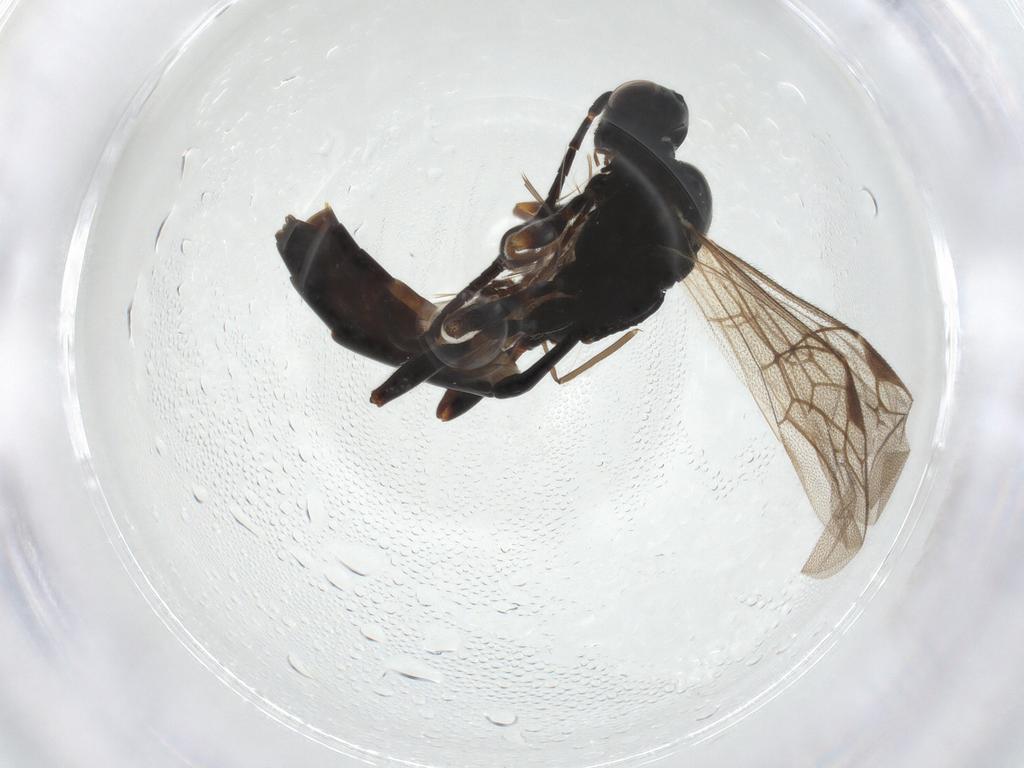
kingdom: Animalia
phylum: Arthropoda
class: Insecta
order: Hymenoptera
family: Ichneumonidae
